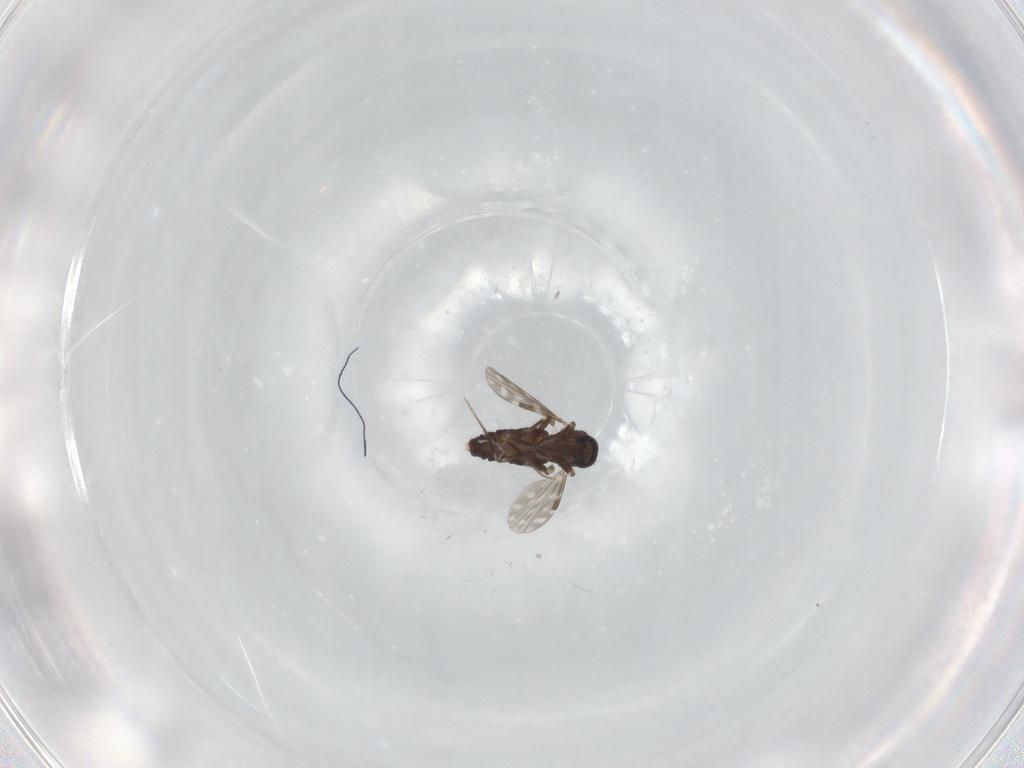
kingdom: Animalia
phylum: Arthropoda
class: Insecta
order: Diptera
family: Ceratopogonidae
